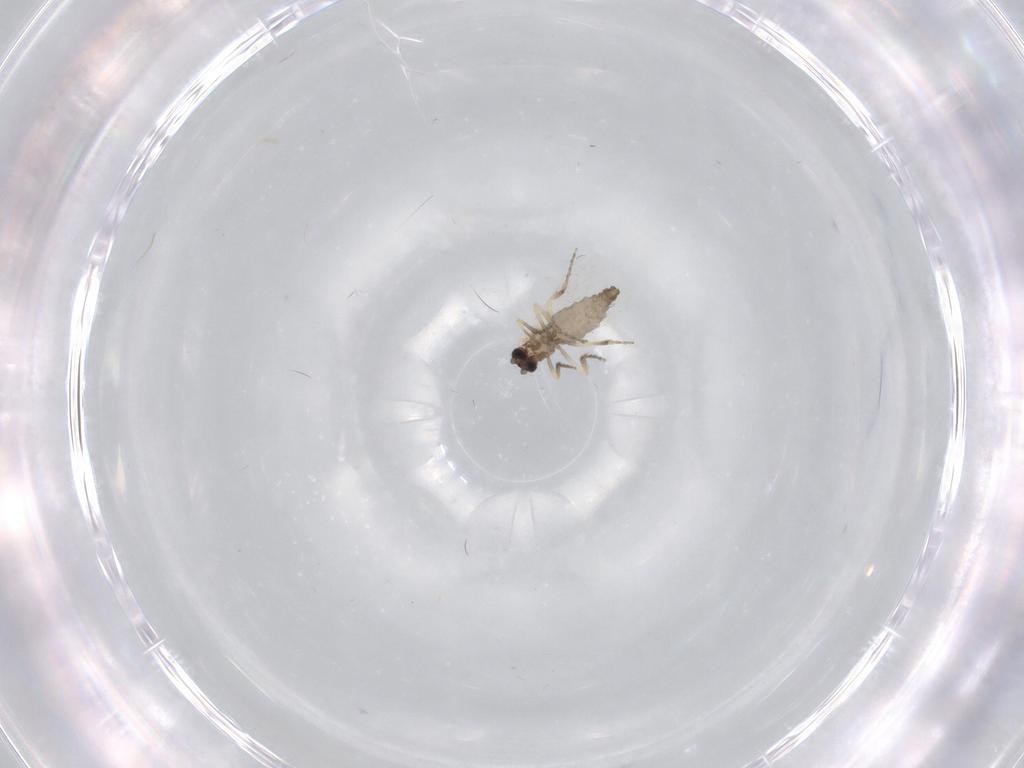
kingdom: Animalia
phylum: Arthropoda
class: Insecta
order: Diptera
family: Ceratopogonidae
